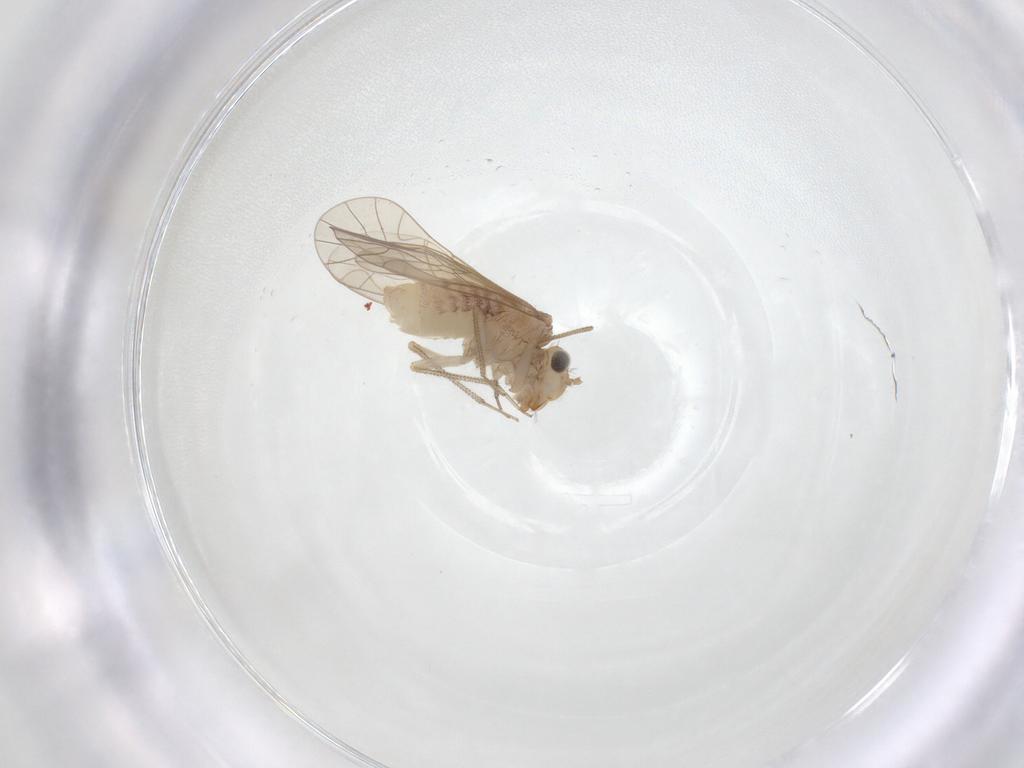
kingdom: Animalia
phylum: Arthropoda
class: Insecta
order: Psocodea
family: Caeciliusidae
